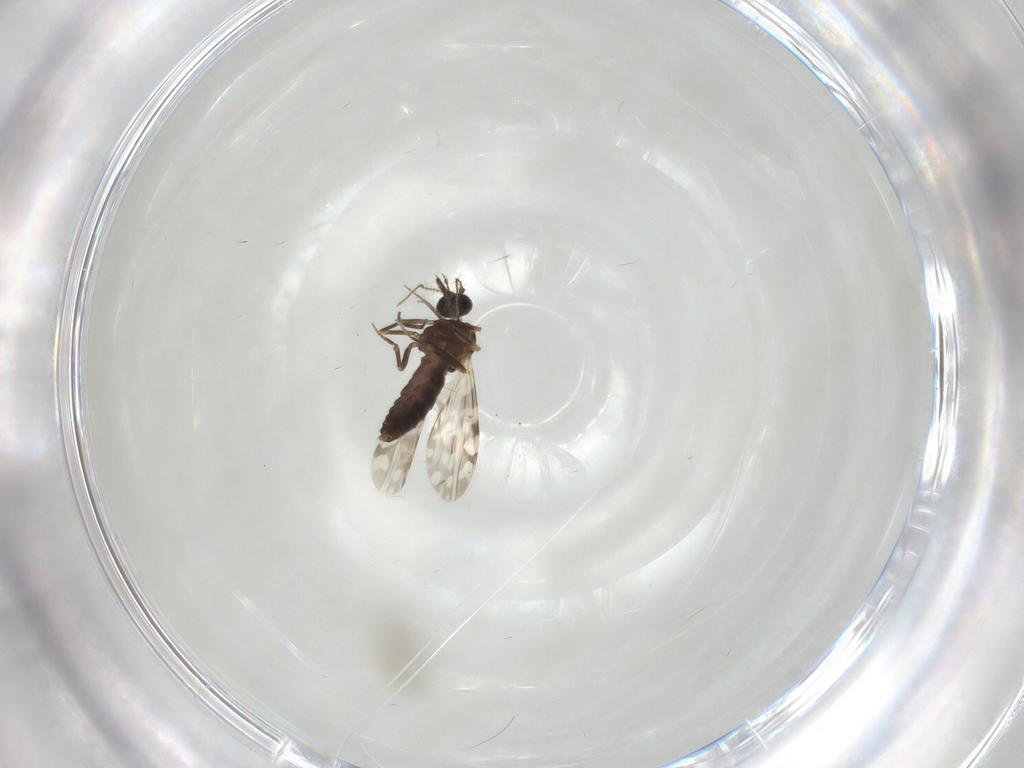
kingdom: Animalia
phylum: Arthropoda
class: Insecta
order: Diptera
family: Ceratopogonidae
